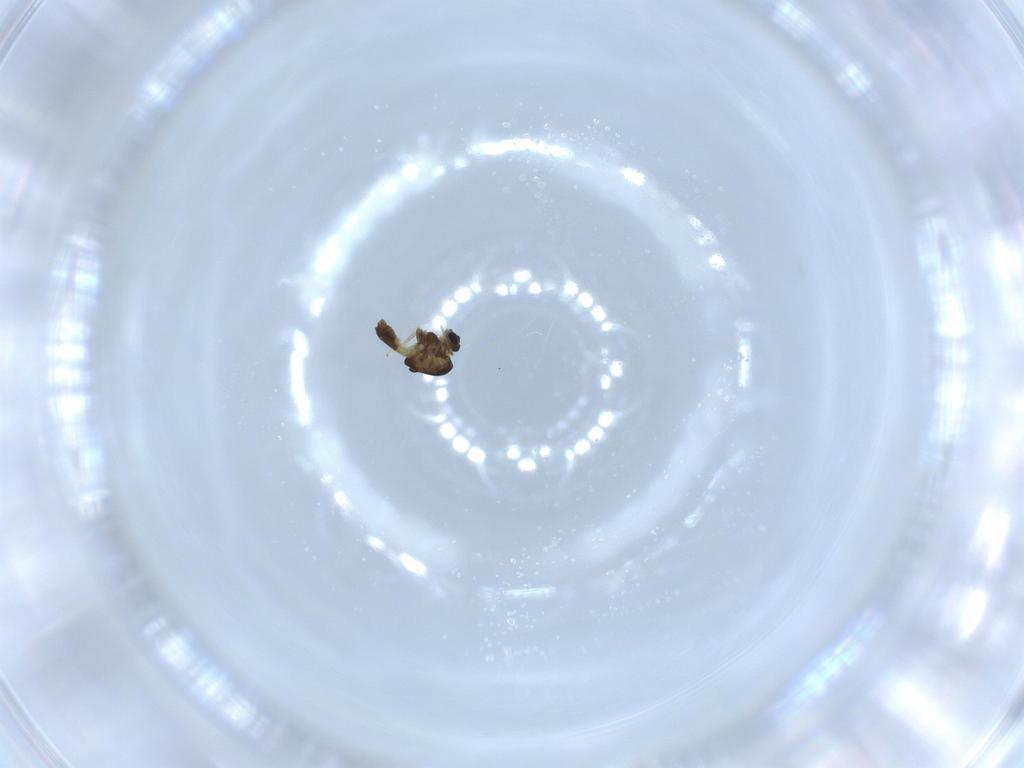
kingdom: Animalia
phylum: Arthropoda
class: Insecta
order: Diptera
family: Chironomidae
